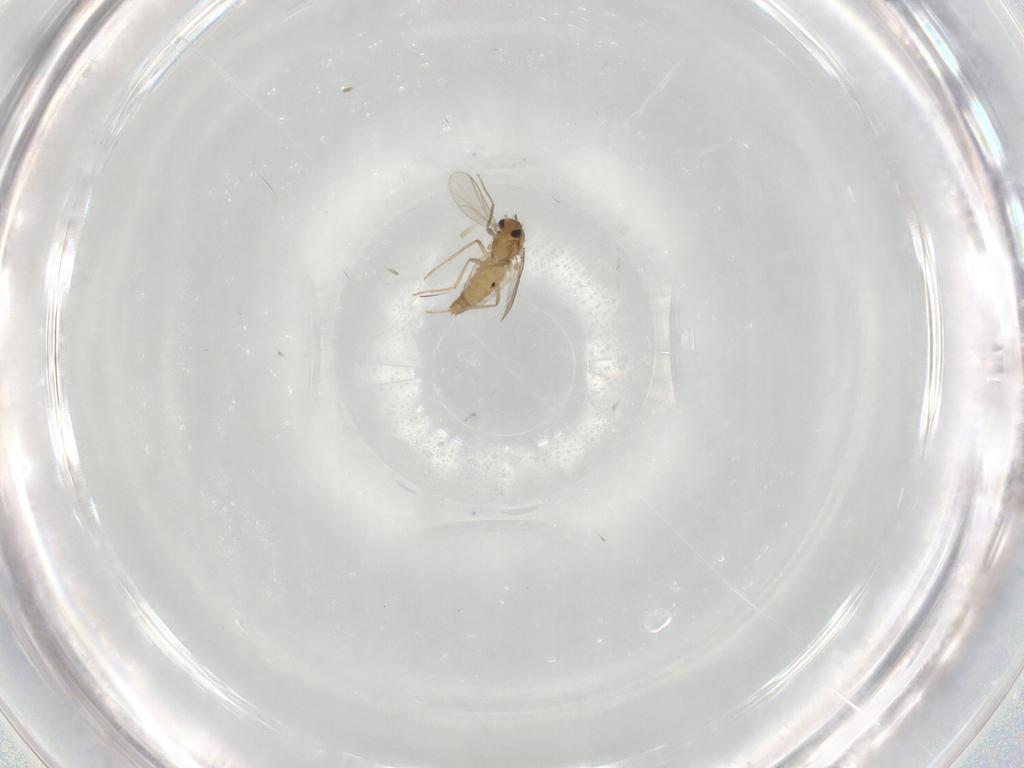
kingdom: Animalia
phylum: Arthropoda
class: Insecta
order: Diptera
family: Chironomidae
